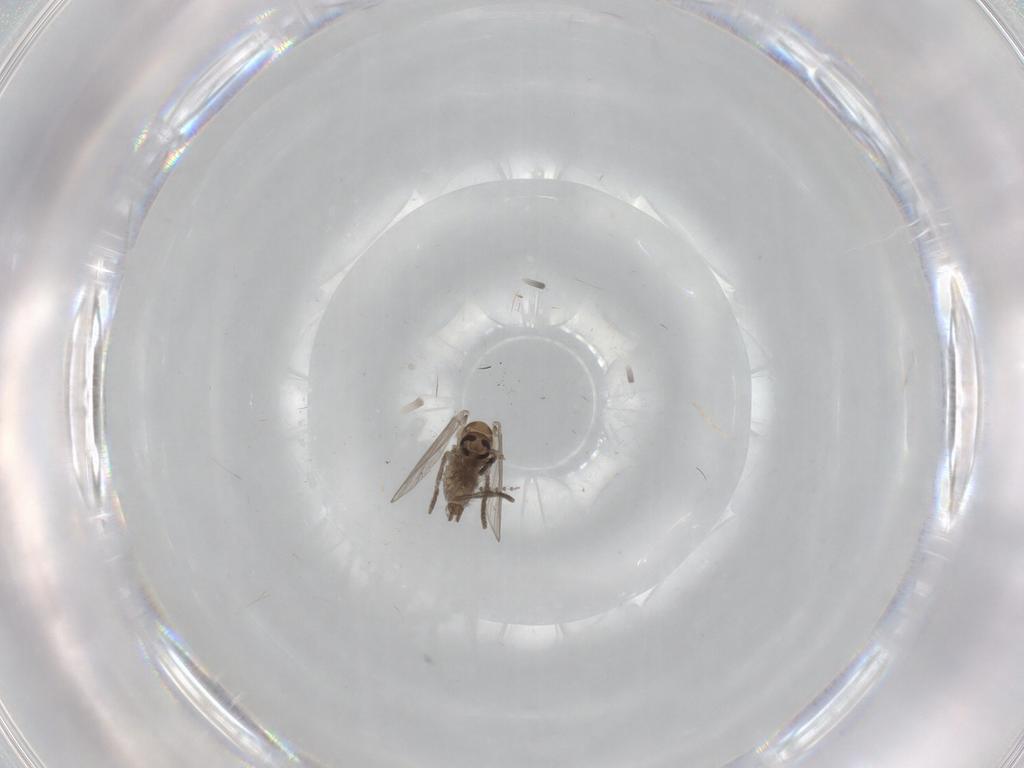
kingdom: Animalia
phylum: Arthropoda
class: Insecta
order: Diptera
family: Psychodidae
